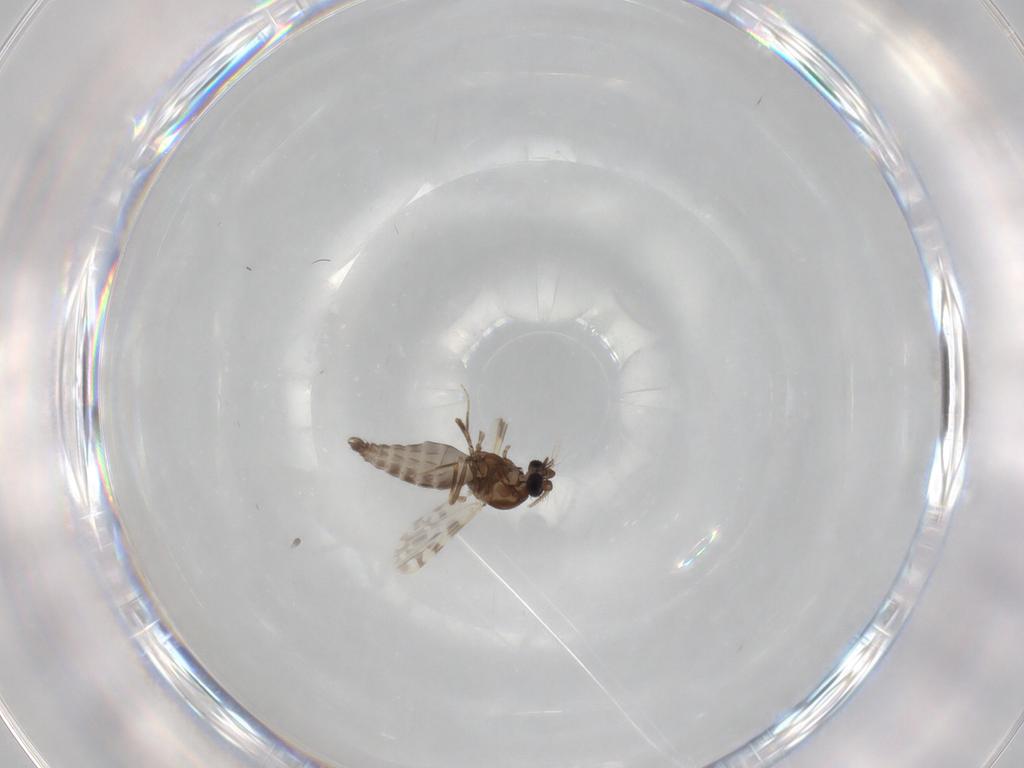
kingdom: Animalia
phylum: Arthropoda
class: Insecta
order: Diptera
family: Ceratopogonidae
